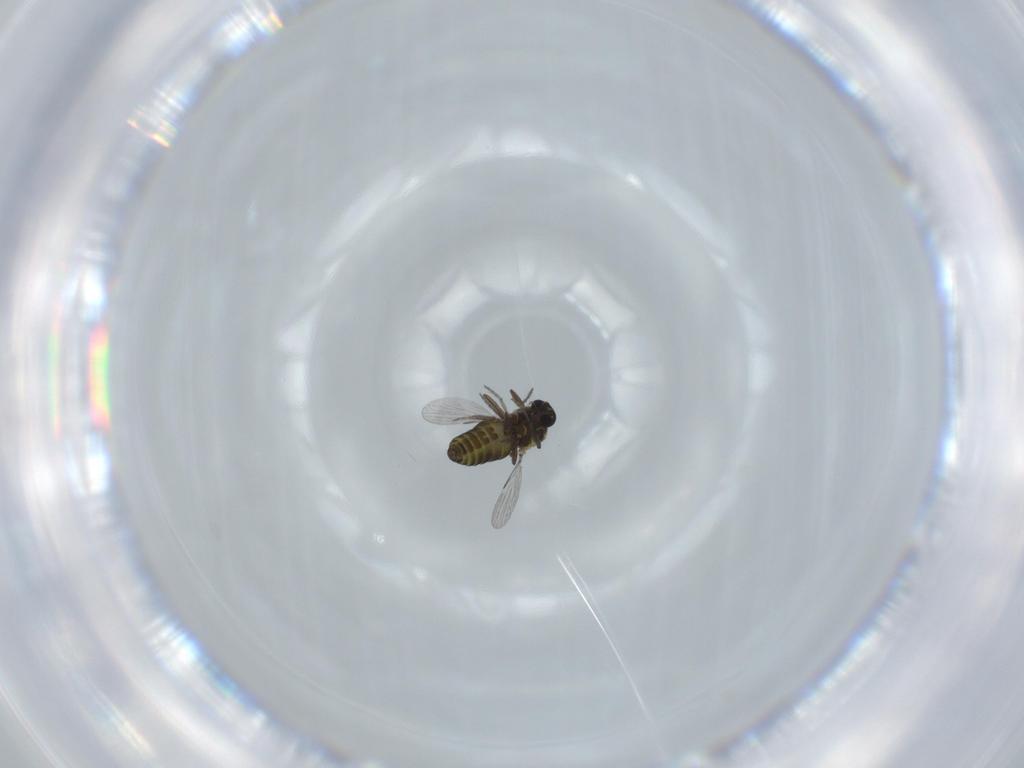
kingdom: Animalia
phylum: Arthropoda
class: Insecta
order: Diptera
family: Ceratopogonidae
